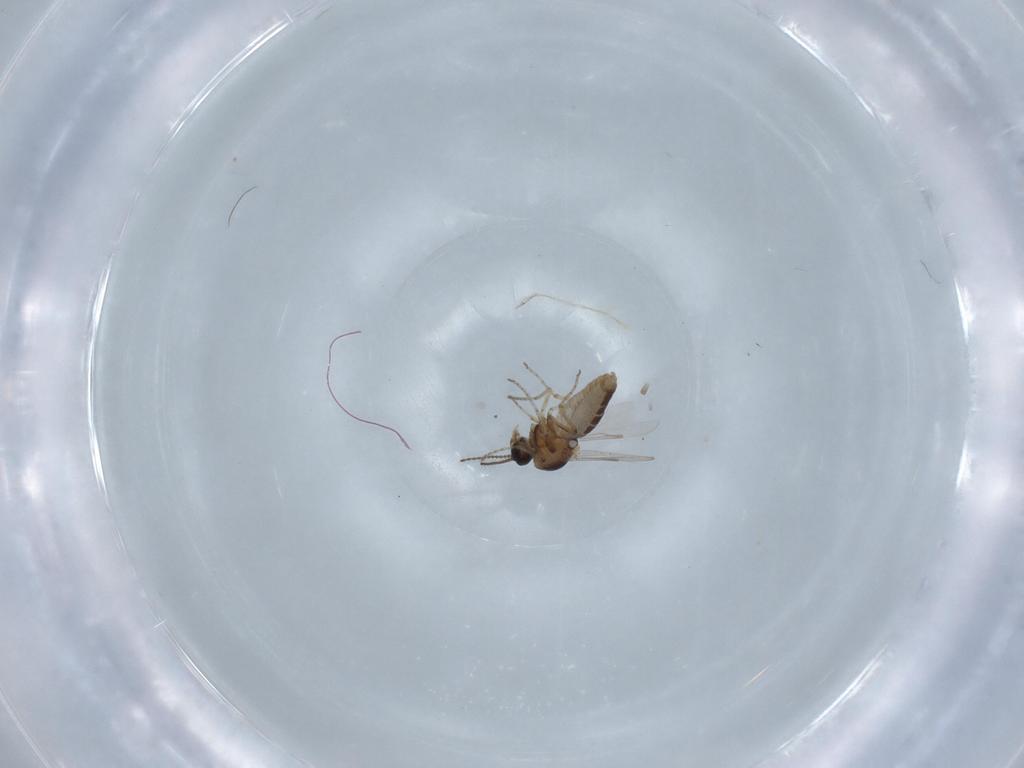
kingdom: Animalia
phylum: Arthropoda
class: Insecta
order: Diptera
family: Ceratopogonidae
